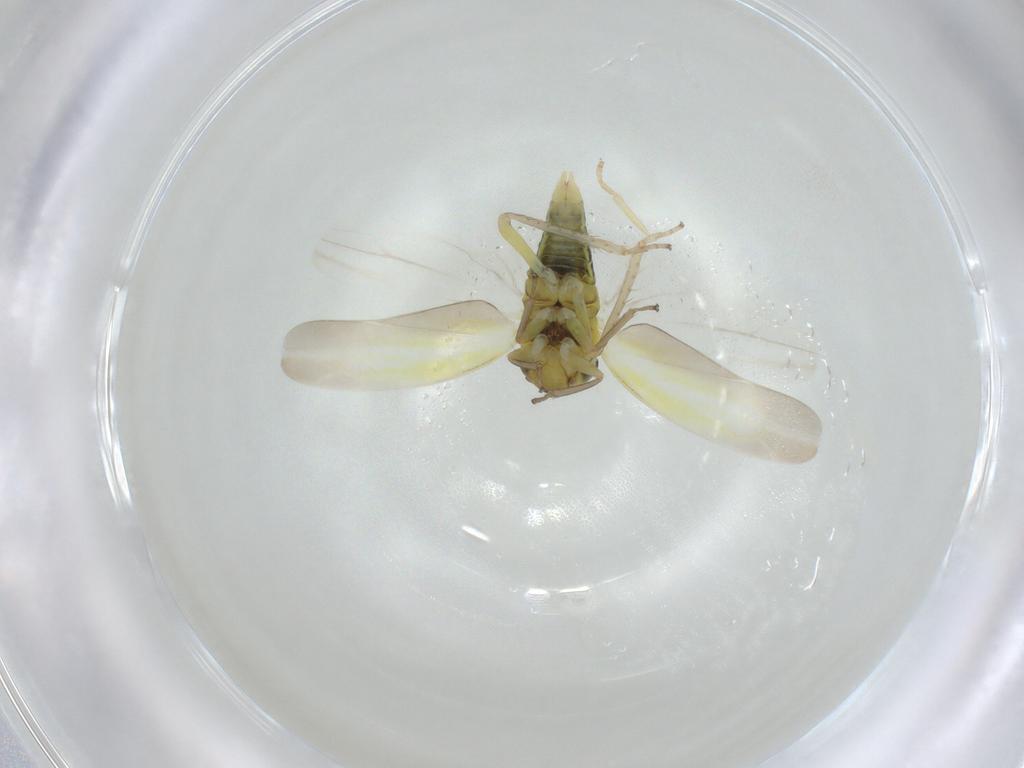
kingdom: Animalia
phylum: Arthropoda
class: Insecta
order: Hemiptera
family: Cicadellidae
